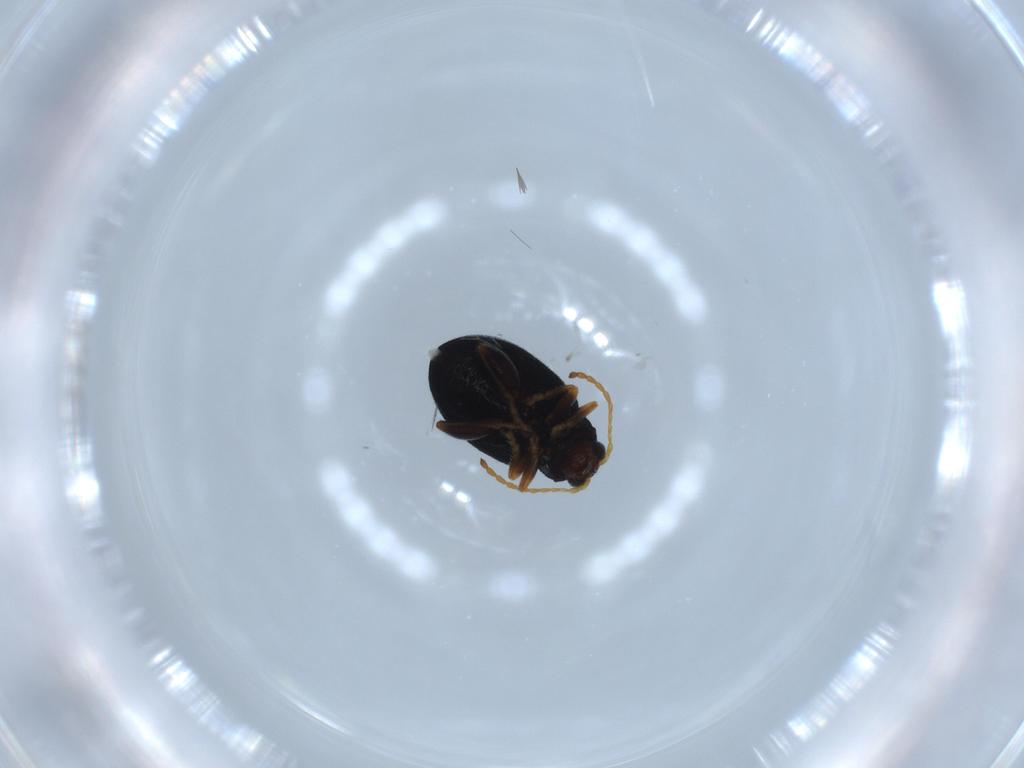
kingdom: Animalia
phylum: Arthropoda
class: Insecta
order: Coleoptera
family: Chrysomelidae
